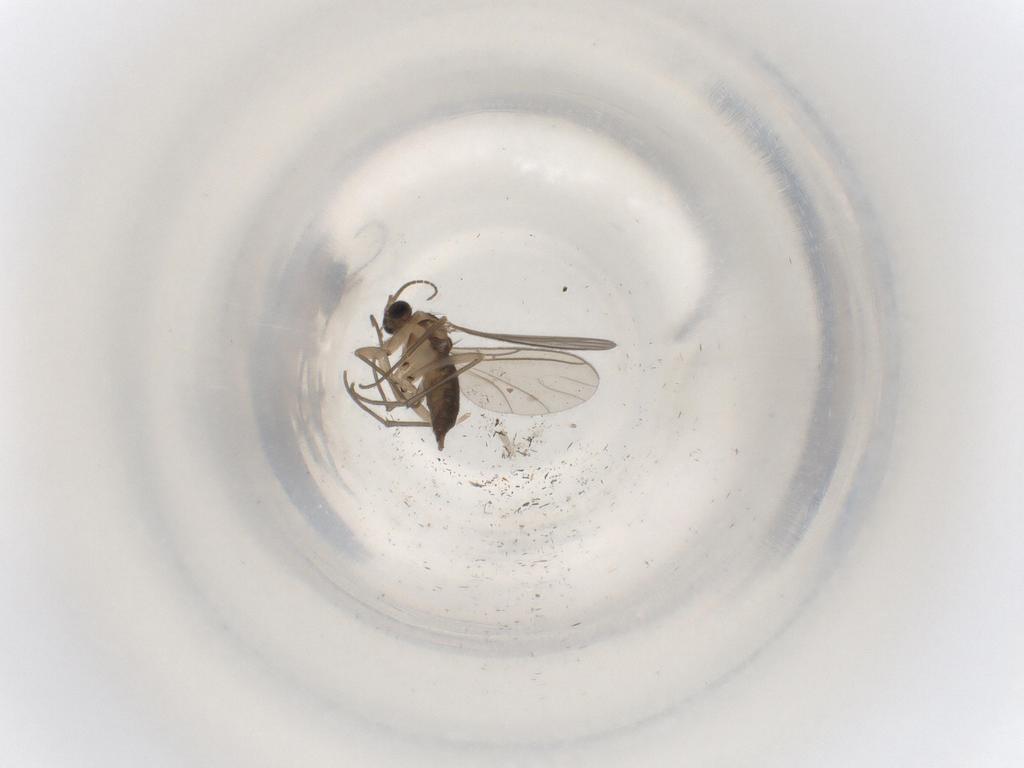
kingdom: Animalia
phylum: Arthropoda
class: Insecta
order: Diptera
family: Sciaridae
